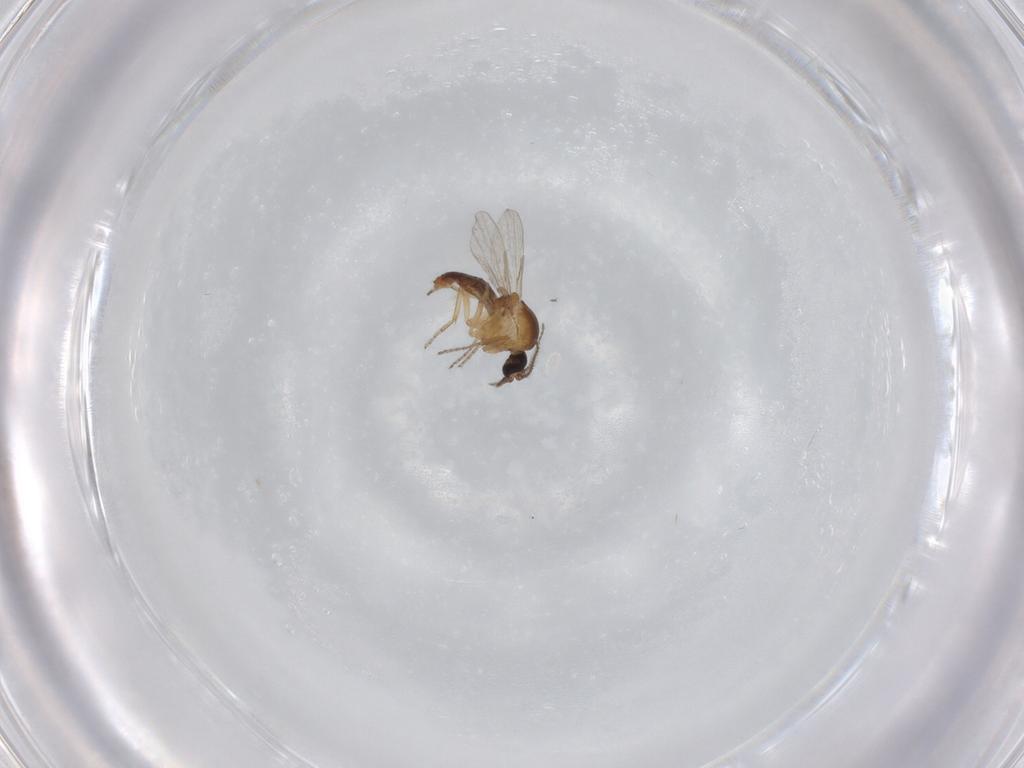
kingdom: Animalia
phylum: Arthropoda
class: Insecta
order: Diptera
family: Ceratopogonidae
